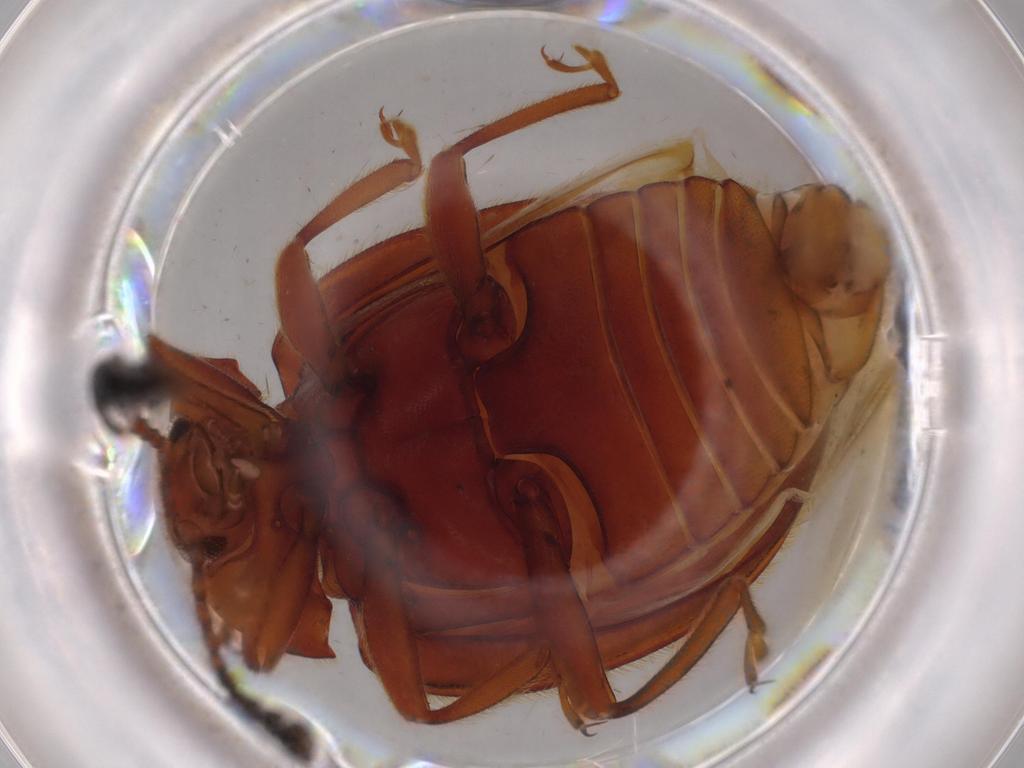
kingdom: Animalia
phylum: Arthropoda
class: Insecta
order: Coleoptera
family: Endomychidae
